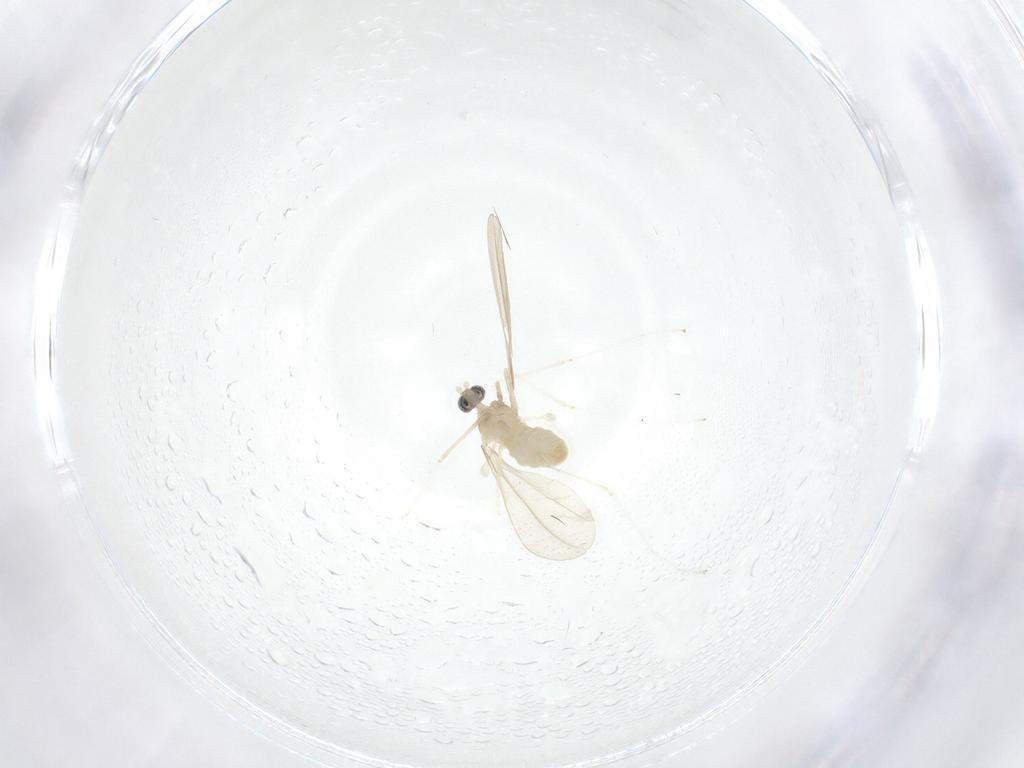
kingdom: Animalia
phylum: Arthropoda
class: Insecta
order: Diptera
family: Cecidomyiidae
